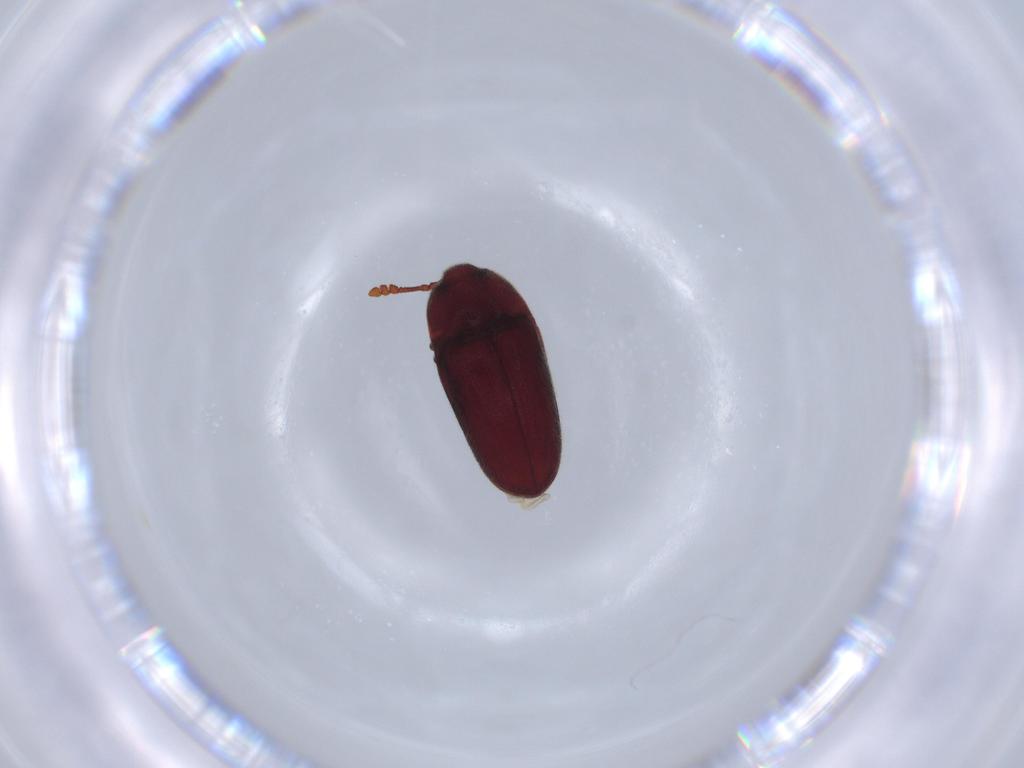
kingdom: Animalia
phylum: Arthropoda
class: Insecta
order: Coleoptera
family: Throscidae
